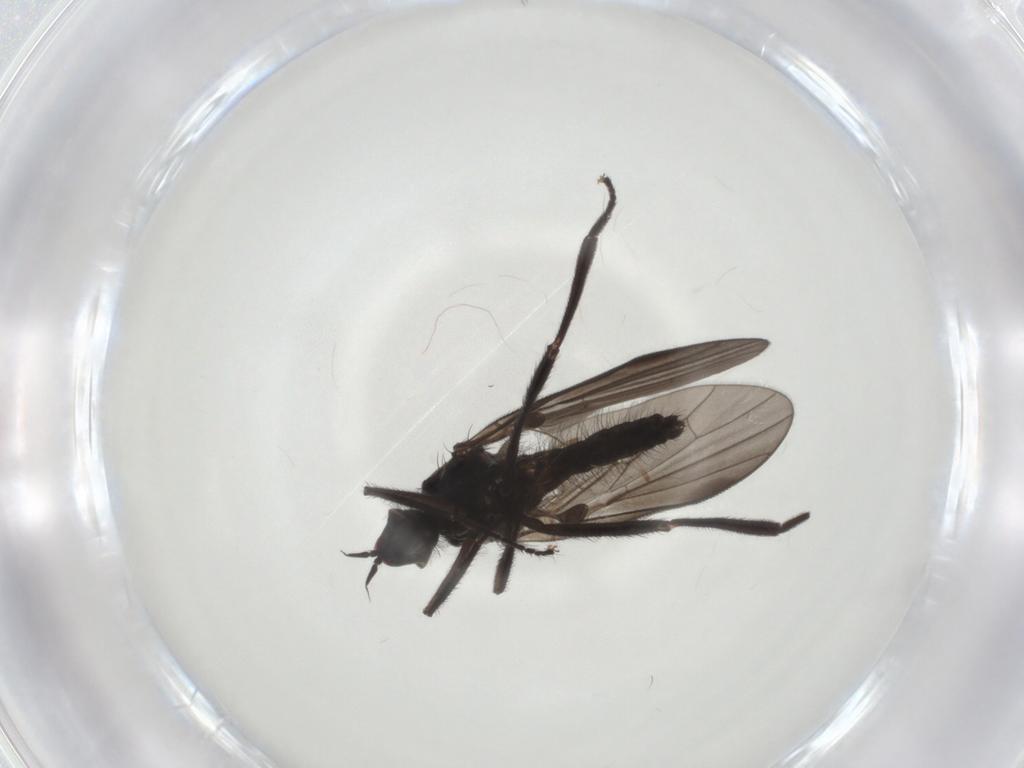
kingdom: Animalia
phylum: Arthropoda
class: Insecta
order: Diptera
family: Hybotidae
